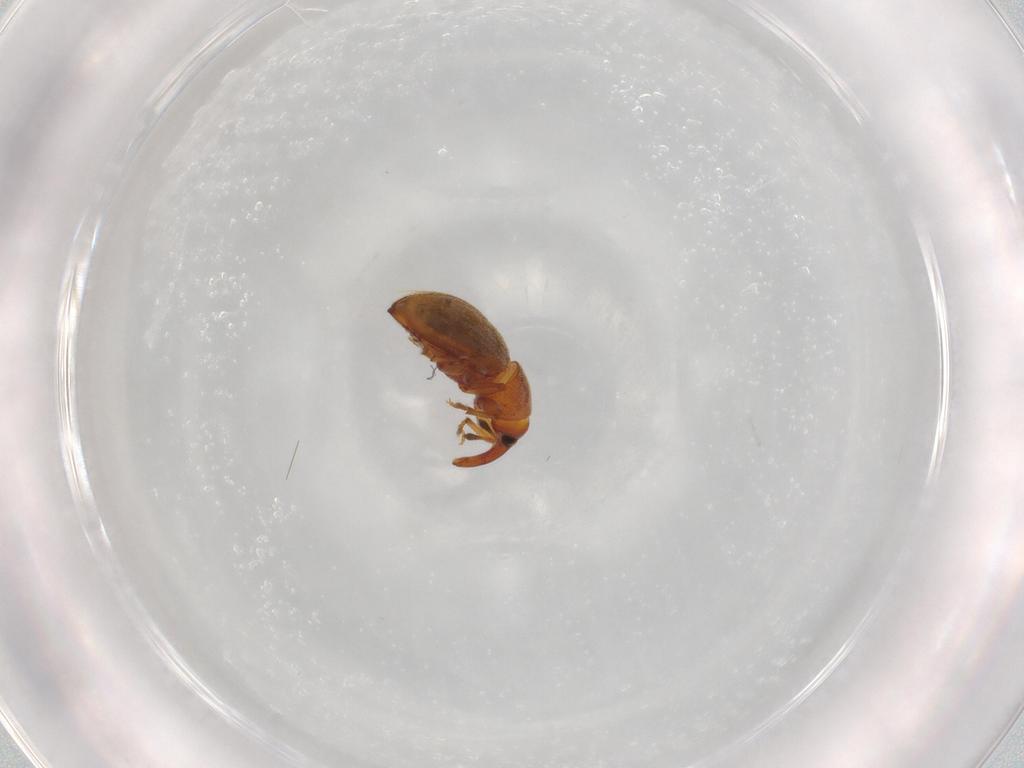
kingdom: Animalia
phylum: Arthropoda
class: Insecta
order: Coleoptera
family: Curculionidae
